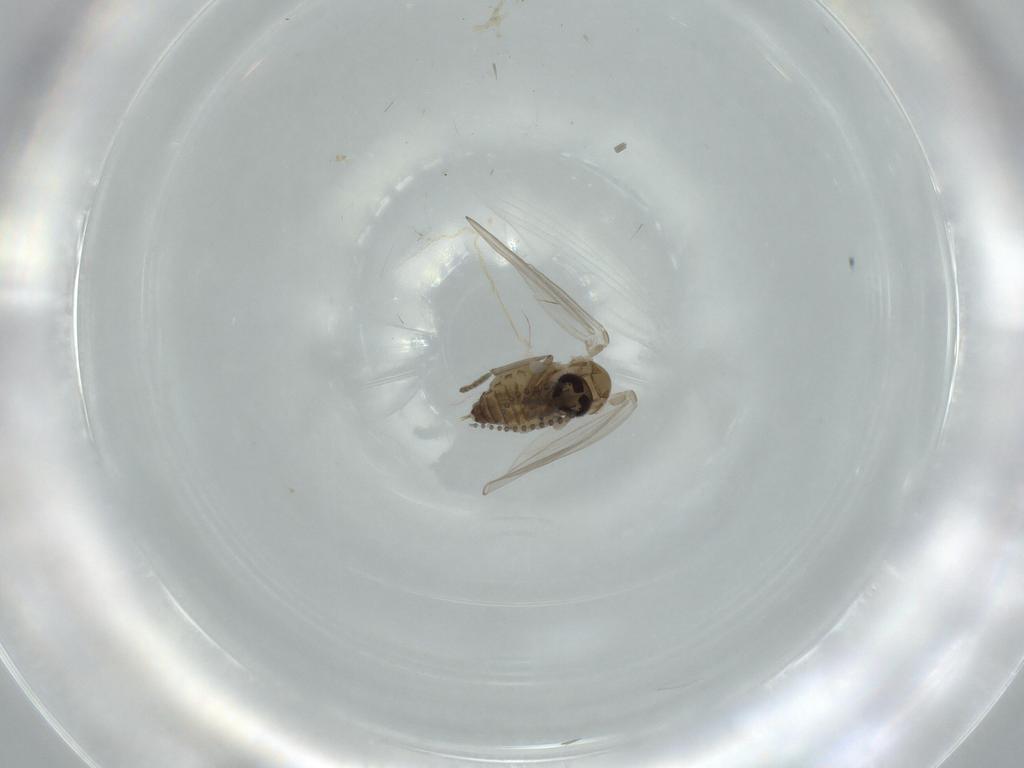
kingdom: Animalia
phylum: Arthropoda
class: Insecta
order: Diptera
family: Psychodidae
